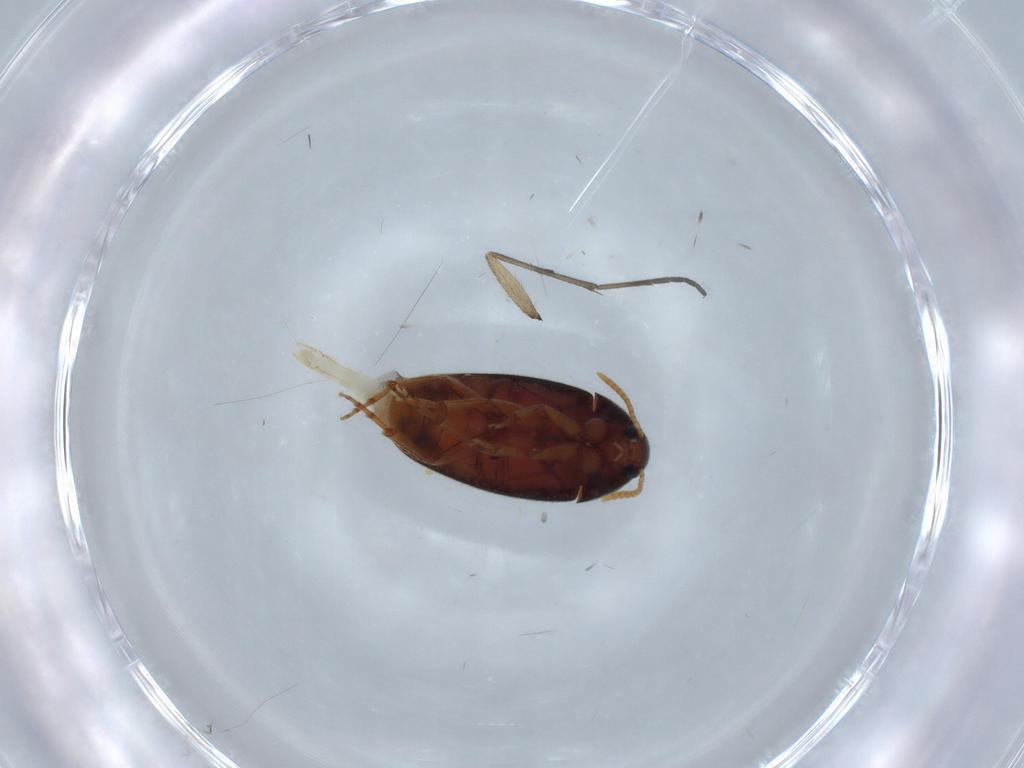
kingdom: Animalia
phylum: Arthropoda
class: Insecta
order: Coleoptera
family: Scraptiidae
